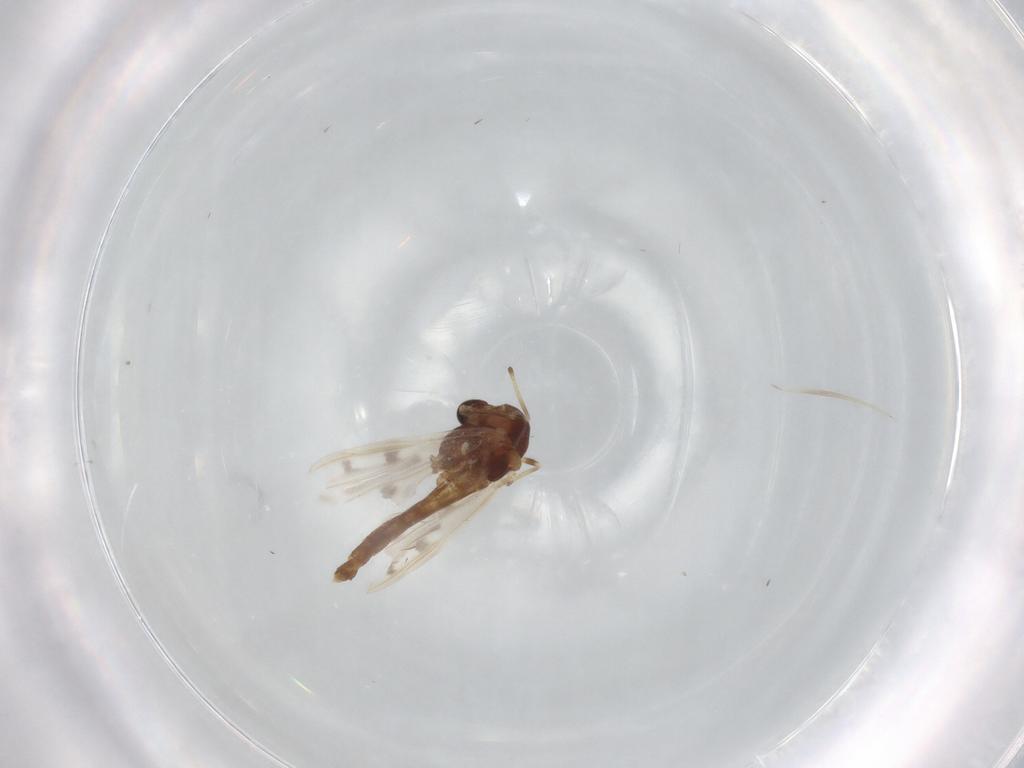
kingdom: Animalia
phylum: Arthropoda
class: Insecta
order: Diptera
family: Chironomidae
